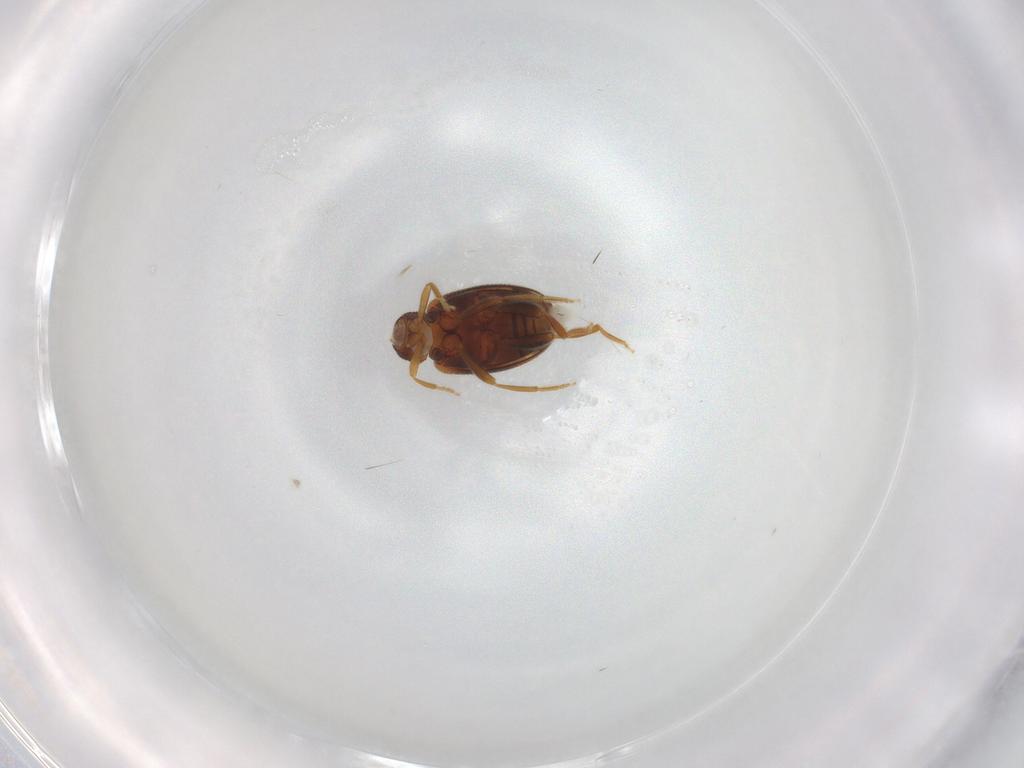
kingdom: Animalia
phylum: Arthropoda
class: Insecta
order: Coleoptera
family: Aderidae
